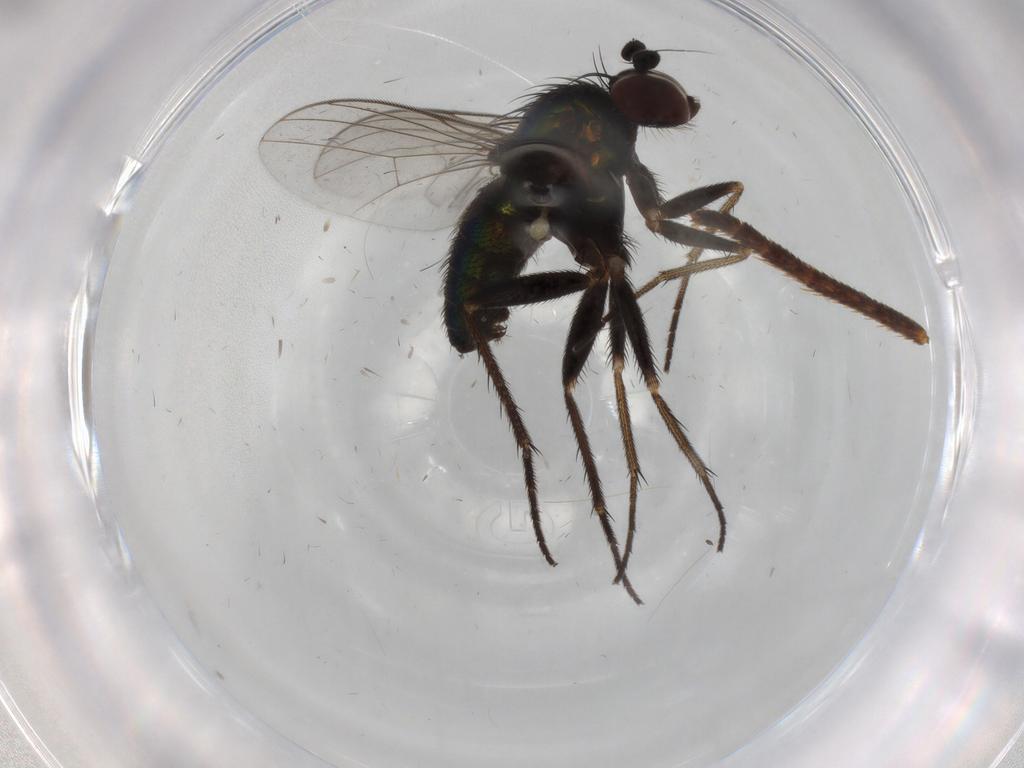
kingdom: Animalia
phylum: Arthropoda
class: Insecta
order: Diptera
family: Dolichopodidae
